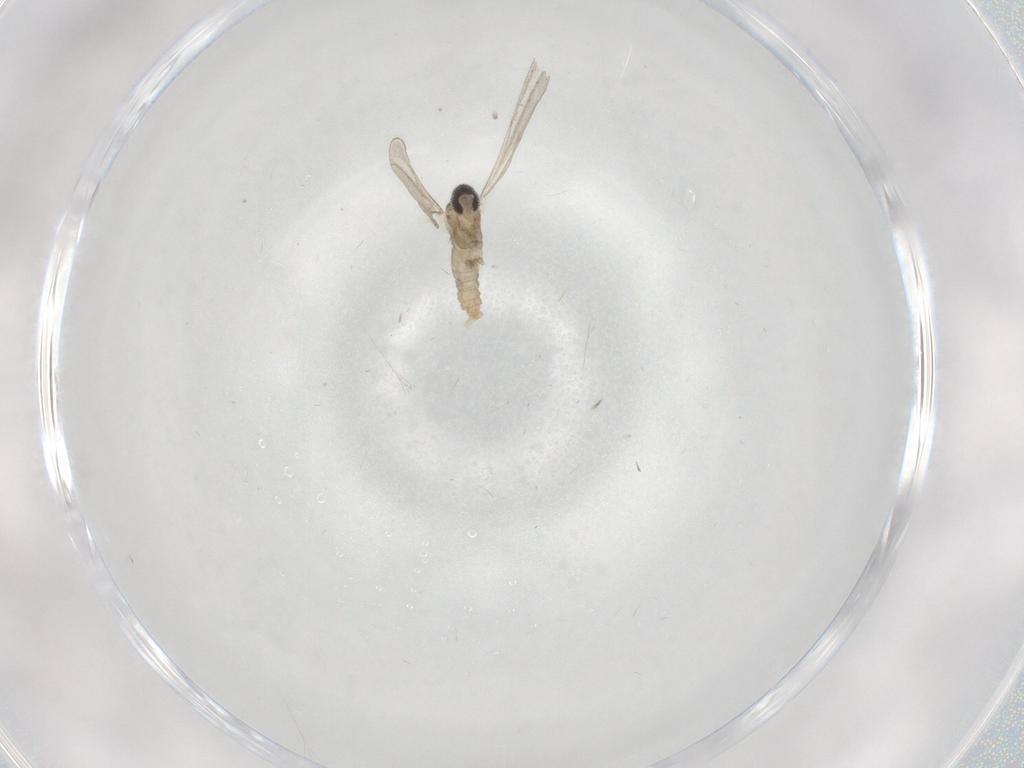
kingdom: Animalia
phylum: Arthropoda
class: Insecta
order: Diptera
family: Cecidomyiidae
